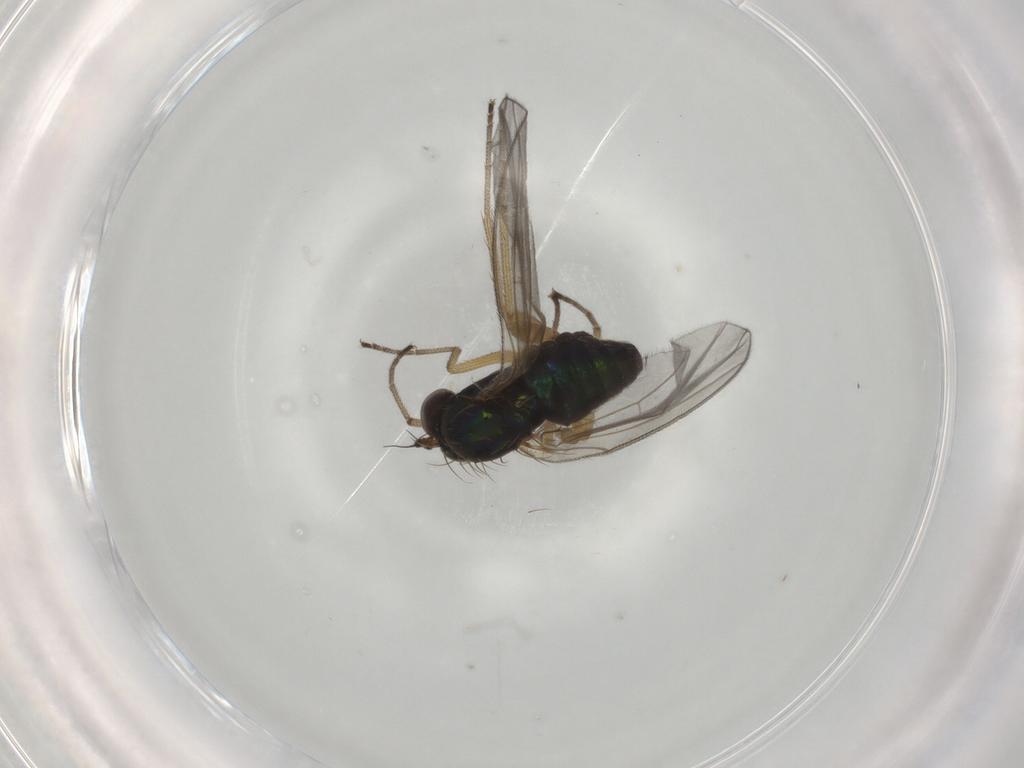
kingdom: Animalia
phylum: Arthropoda
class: Insecta
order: Diptera
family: Dolichopodidae
